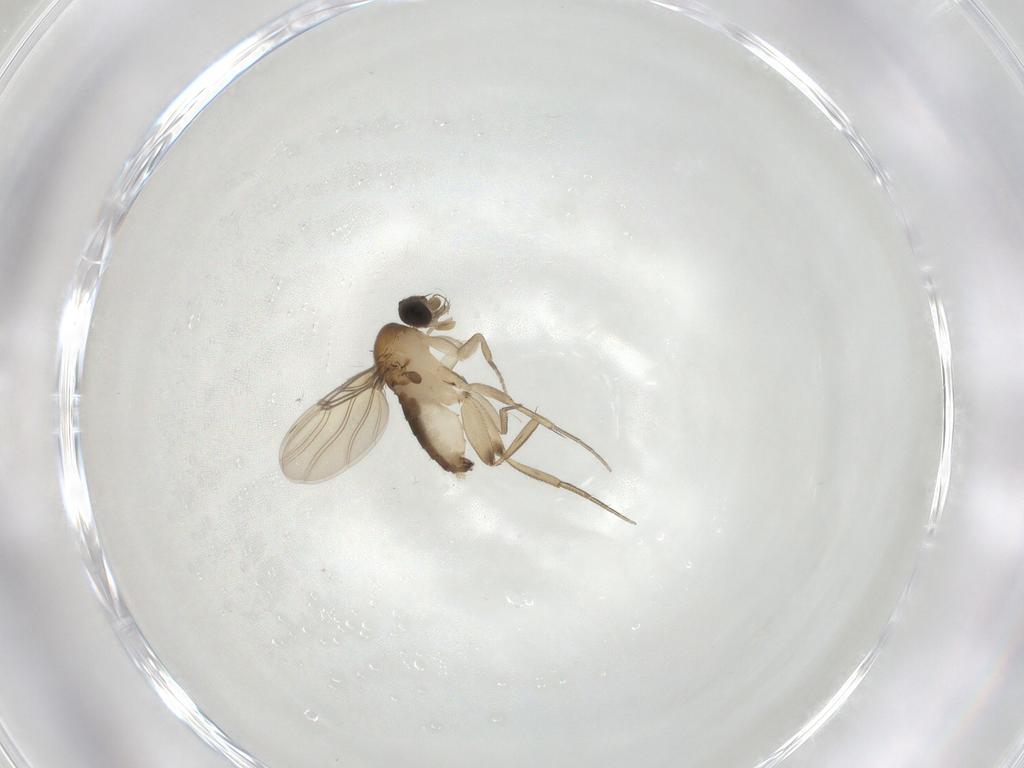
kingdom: Animalia
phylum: Arthropoda
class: Insecta
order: Diptera
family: Phoridae
